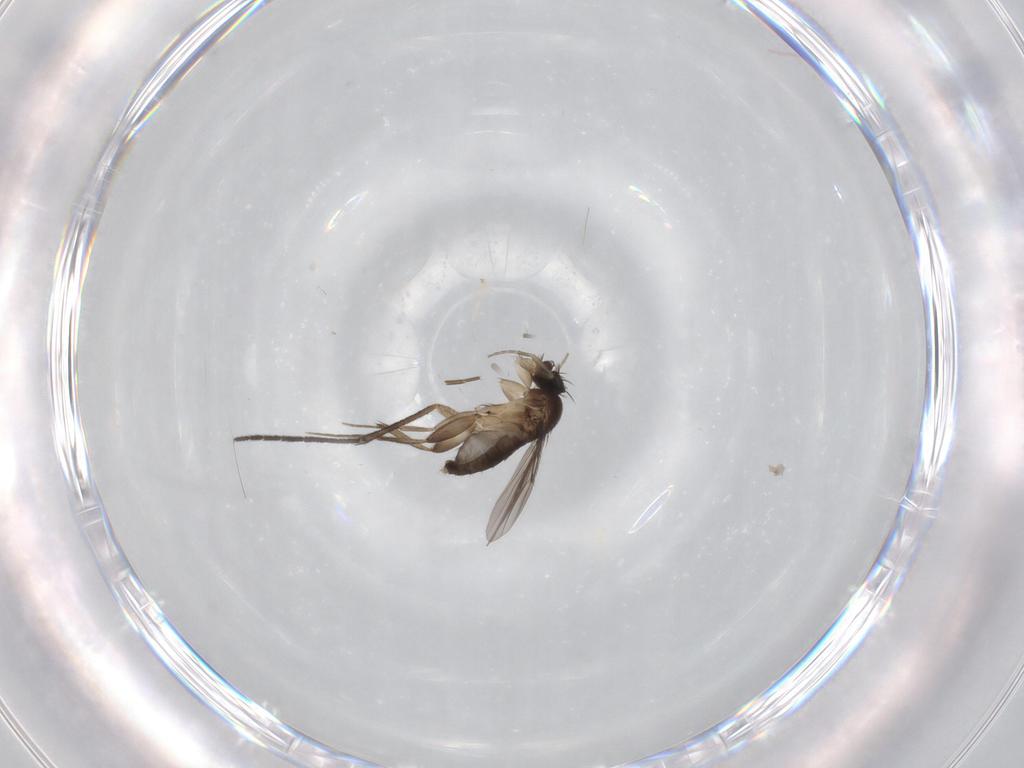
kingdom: Animalia
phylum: Arthropoda
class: Insecta
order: Diptera
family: Phoridae
